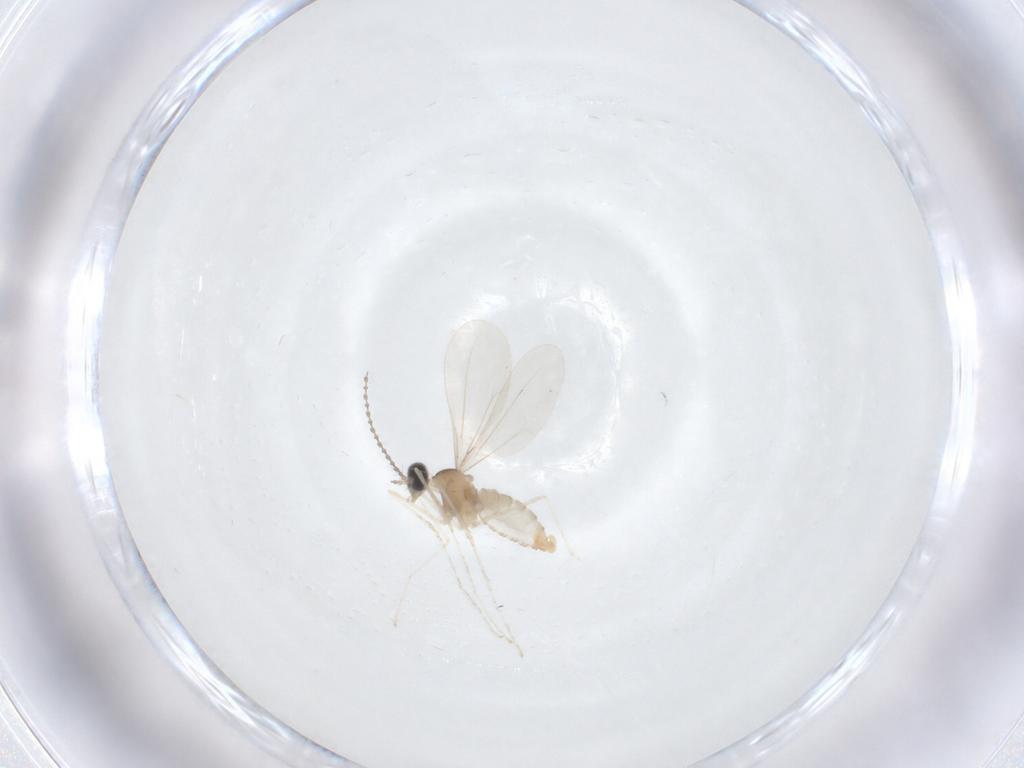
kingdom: Animalia
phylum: Arthropoda
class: Insecta
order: Diptera
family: Cecidomyiidae
